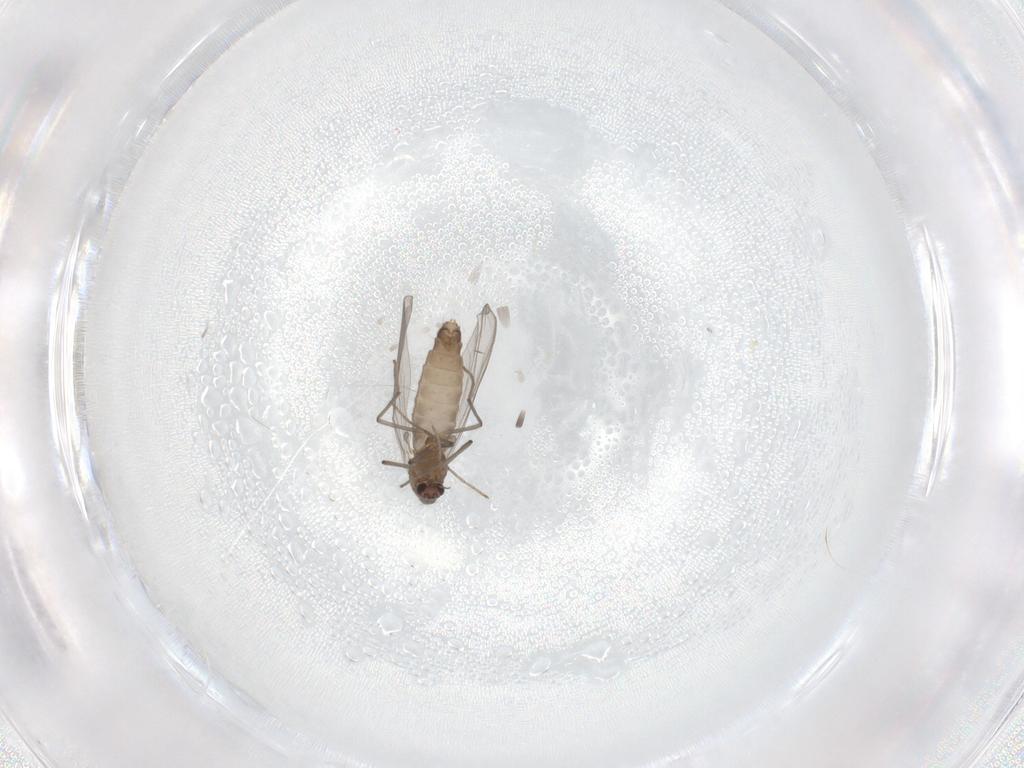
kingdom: Animalia
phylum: Arthropoda
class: Insecta
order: Diptera
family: Chironomidae
